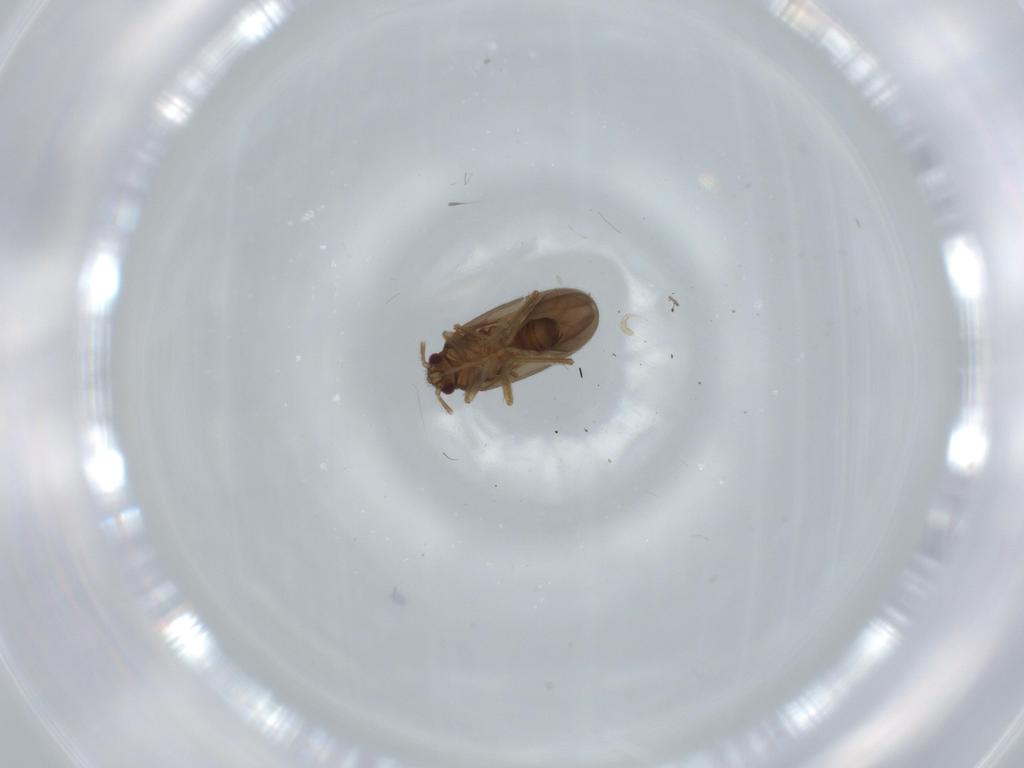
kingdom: Animalia
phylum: Arthropoda
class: Insecta
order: Hemiptera
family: Ceratocombidae
